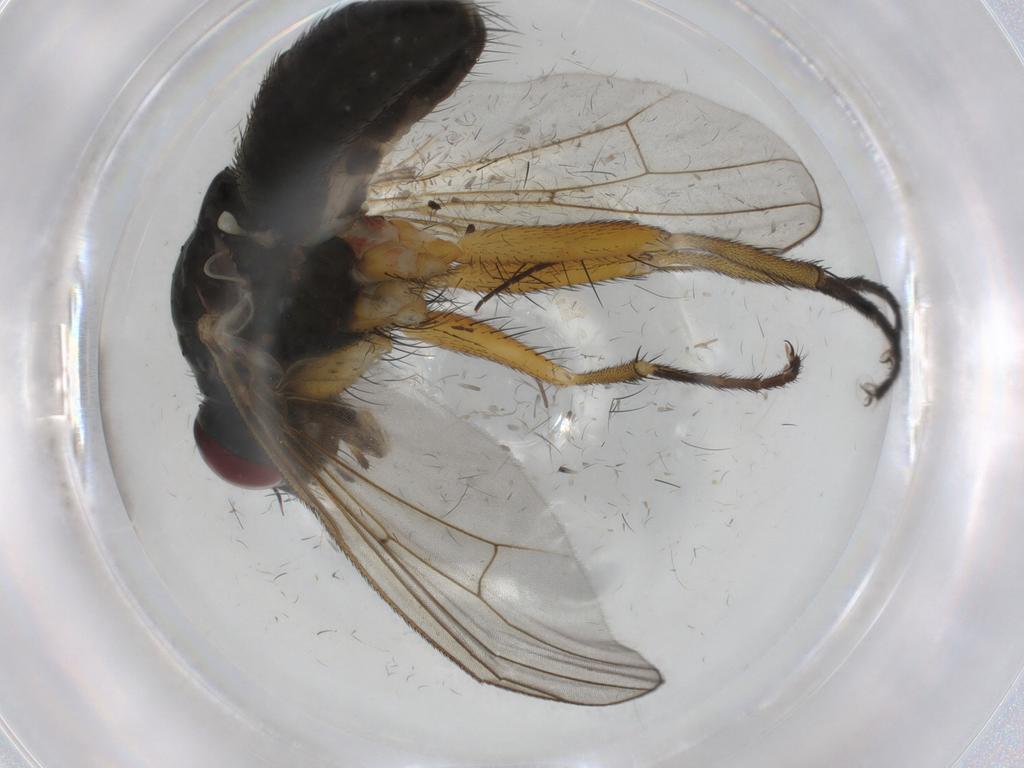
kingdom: Animalia
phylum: Arthropoda
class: Insecta
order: Diptera
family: Muscidae
